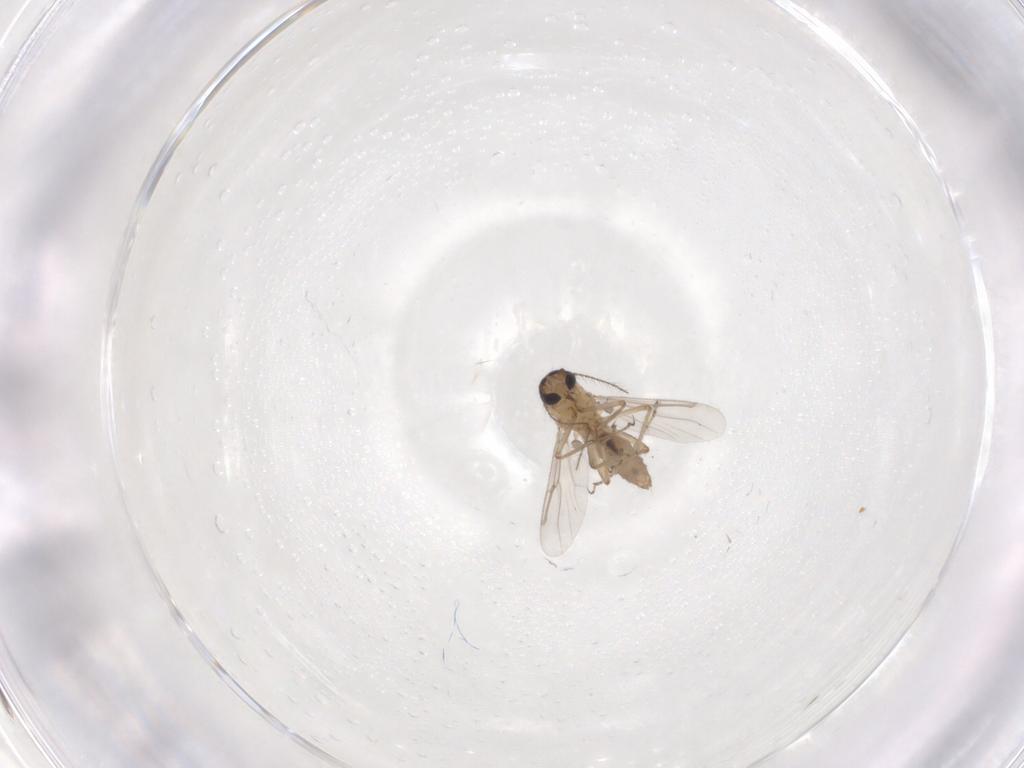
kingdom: Animalia
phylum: Arthropoda
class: Insecta
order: Diptera
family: Ceratopogonidae
